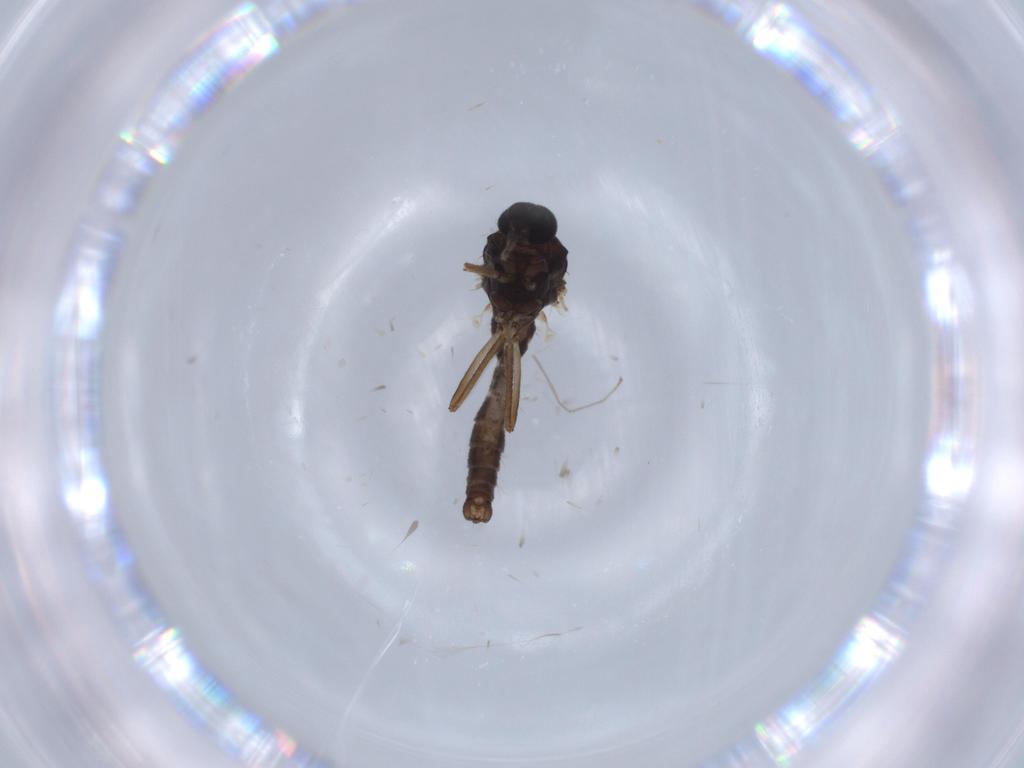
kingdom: Animalia
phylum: Arthropoda
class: Insecta
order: Diptera
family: Ceratopogonidae
